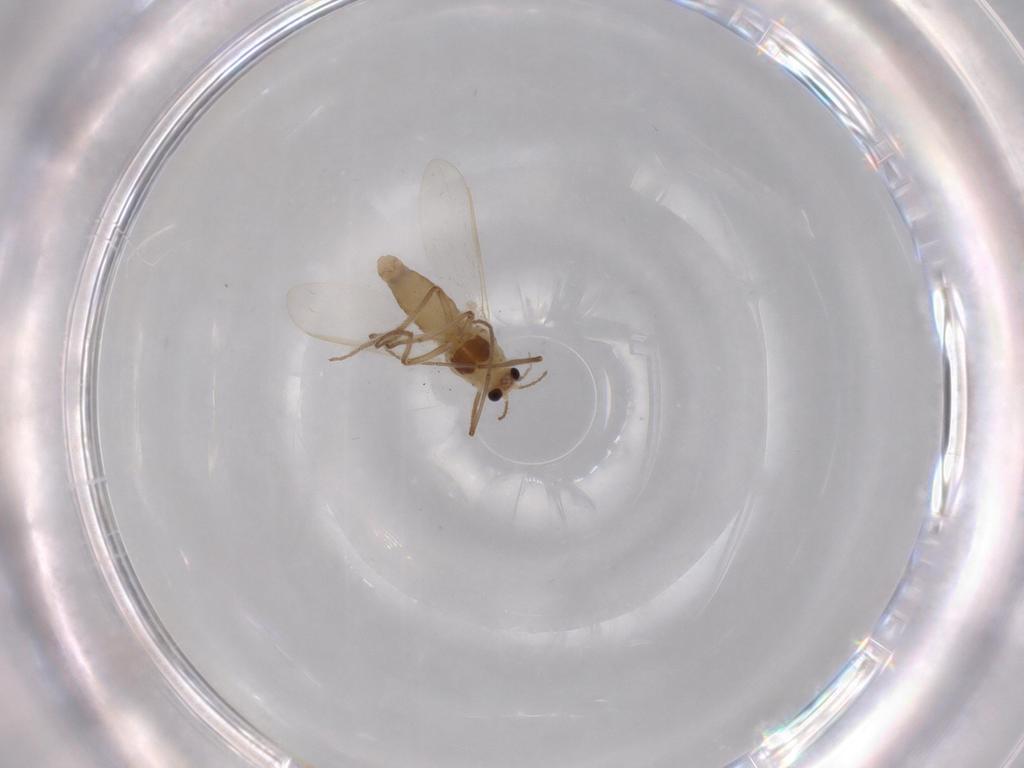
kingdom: Animalia
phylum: Arthropoda
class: Insecta
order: Diptera
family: Chironomidae
